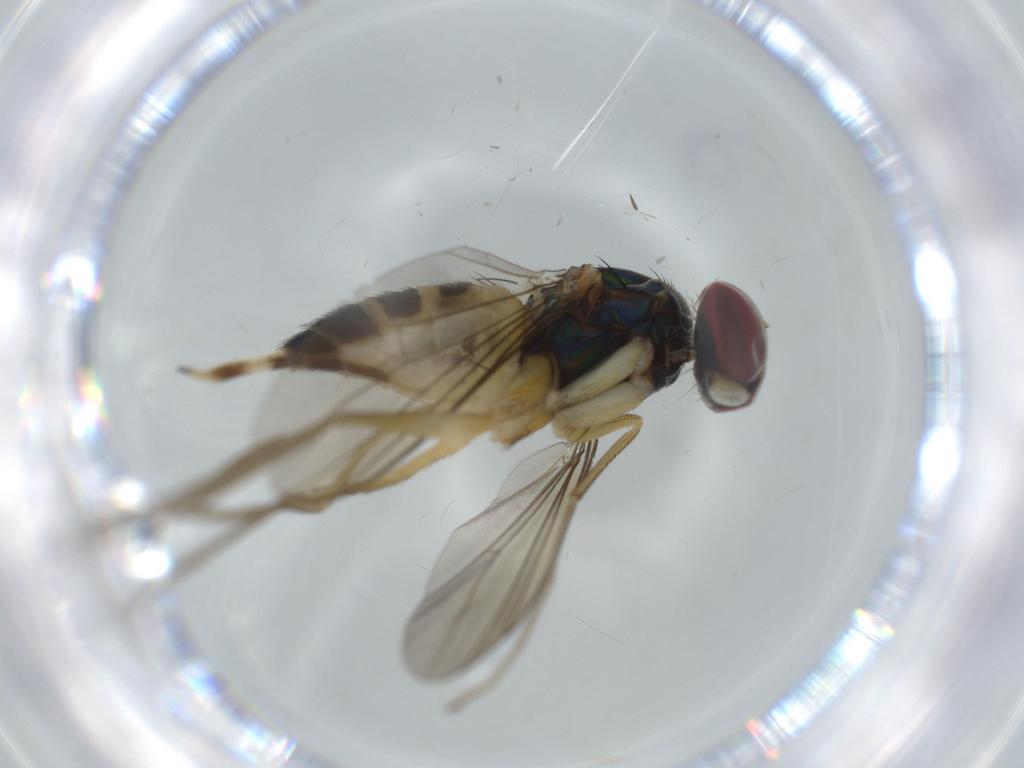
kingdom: Animalia
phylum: Arthropoda
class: Insecta
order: Diptera
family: Dolichopodidae
